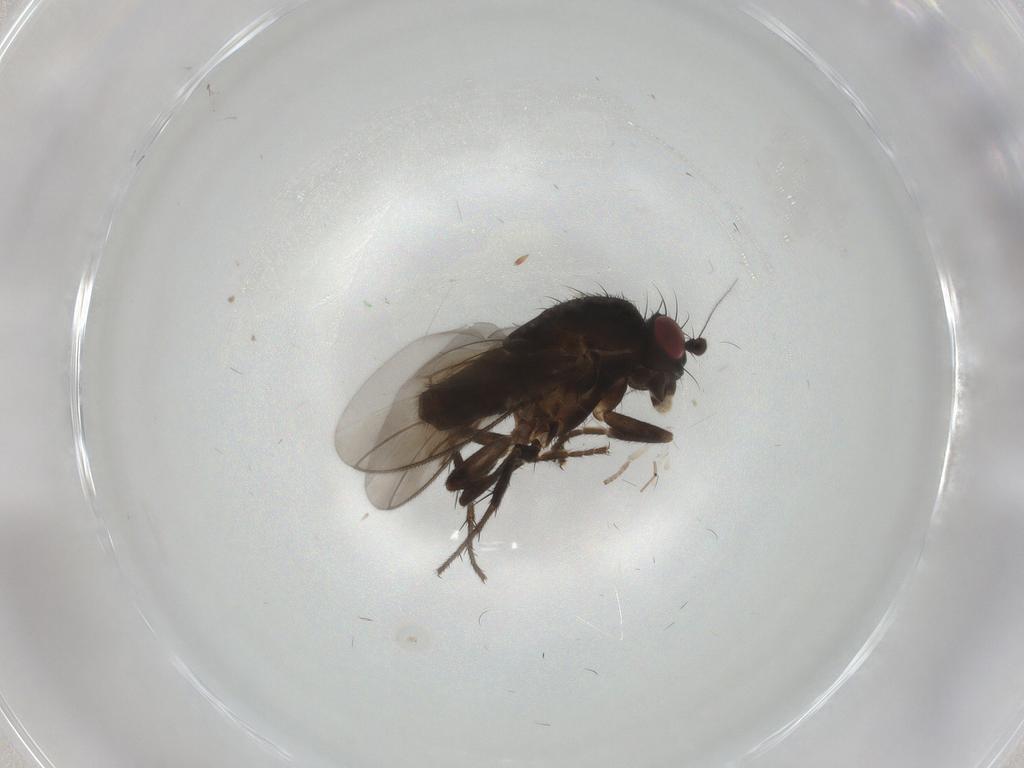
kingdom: Animalia
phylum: Arthropoda
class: Insecta
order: Diptera
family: Sphaeroceridae
